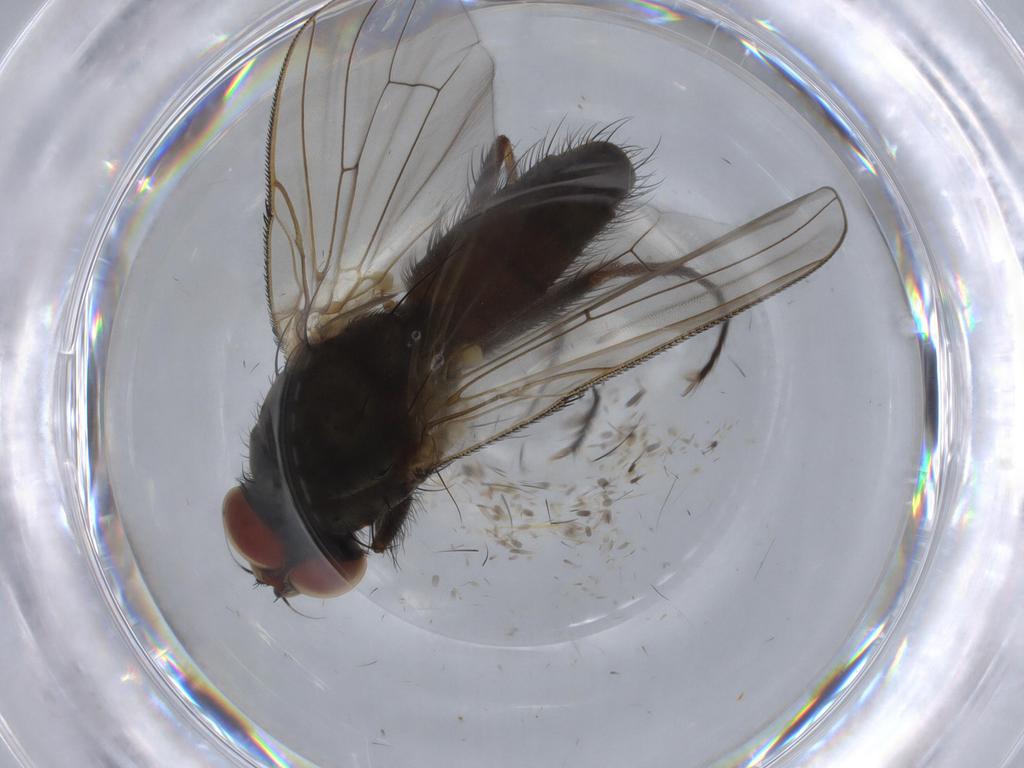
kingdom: Animalia
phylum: Arthropoda
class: Insecta
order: Diptera
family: Anthomyiidae
